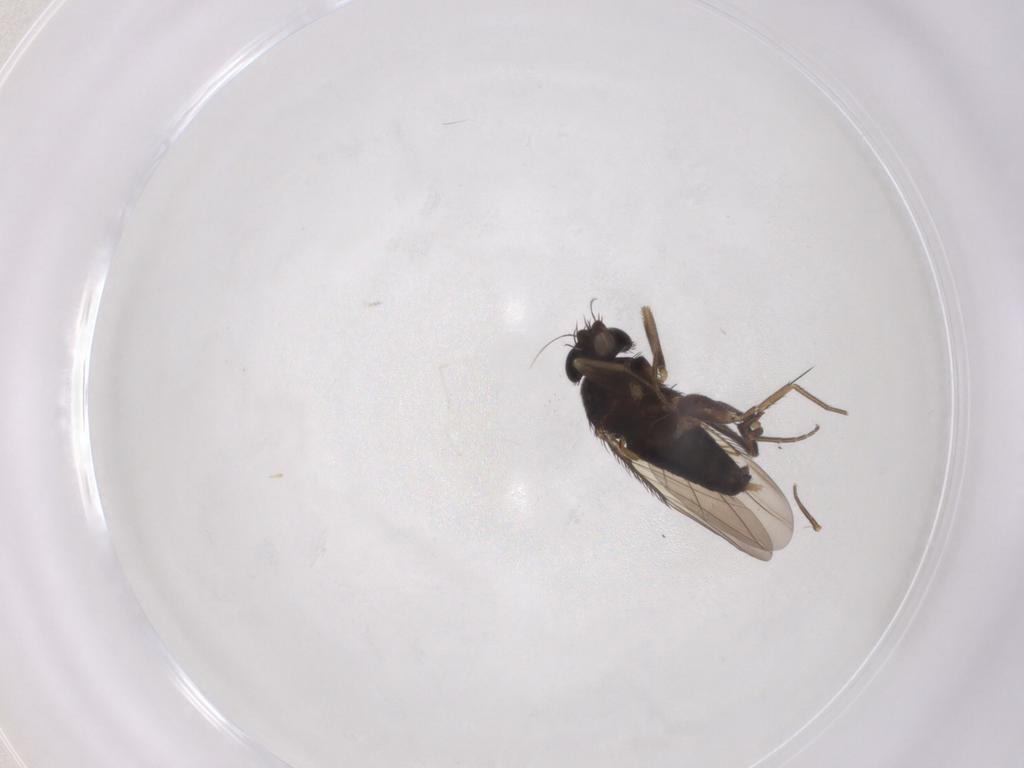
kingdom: Animalia
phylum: Arthropoda
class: Insecta
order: Diptera
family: Phoridae
